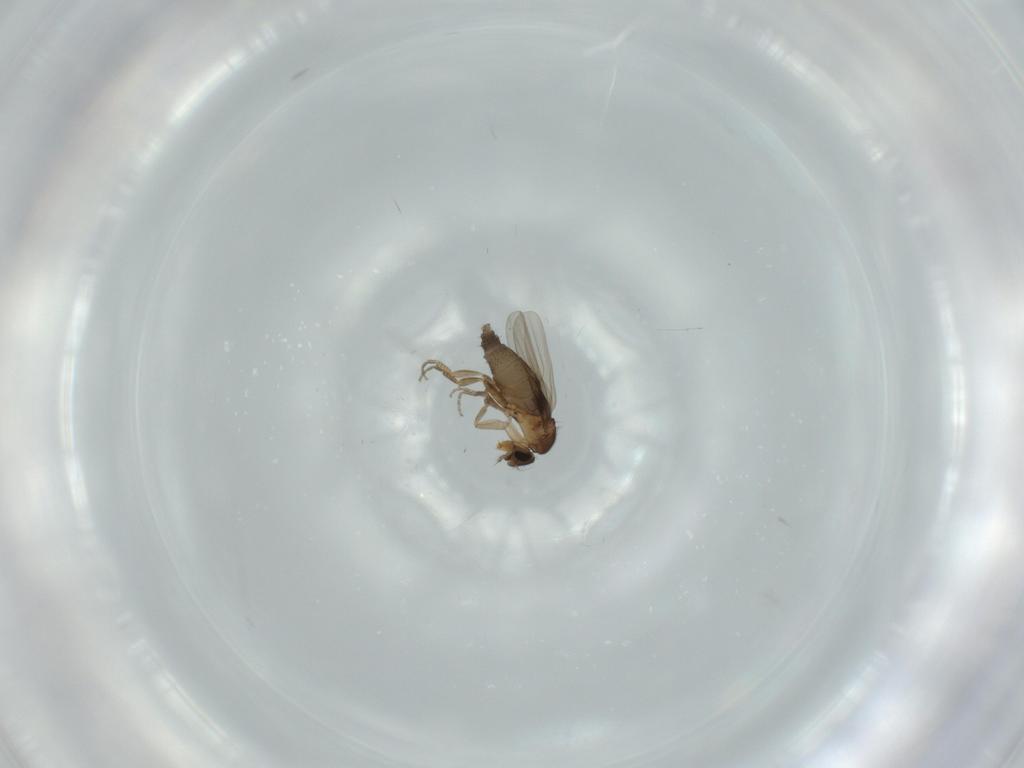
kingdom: Animalia
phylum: Arthropoda
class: Insecta
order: Diptera
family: Phoridae
